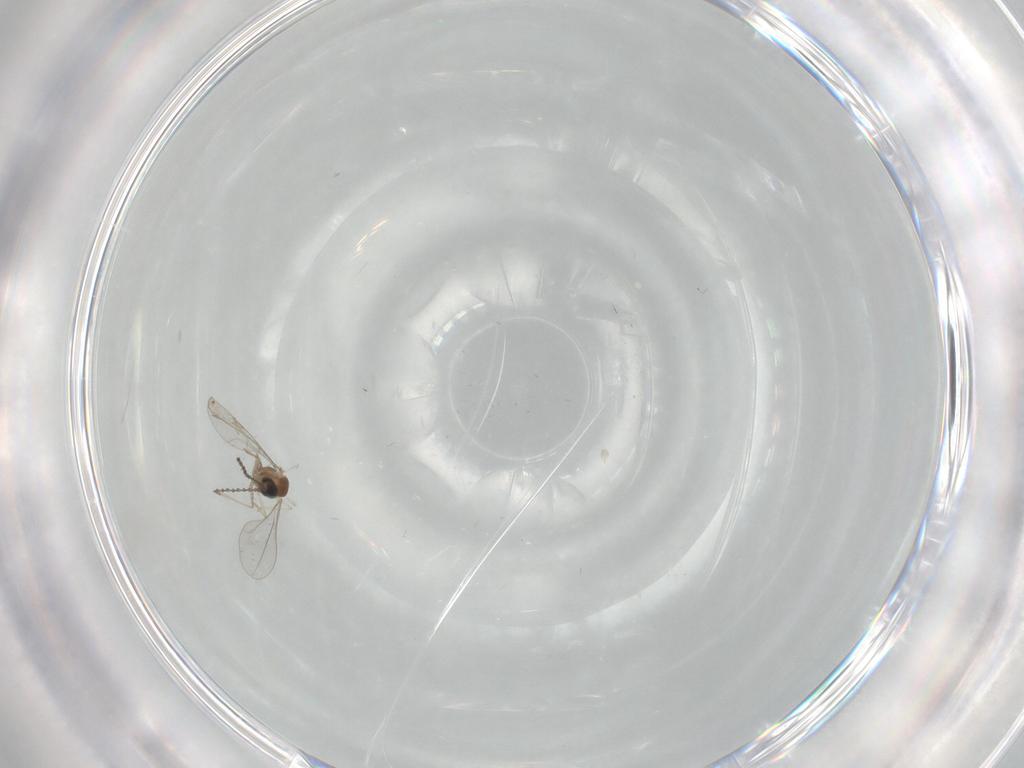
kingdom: Animalia
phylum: Arthropoda
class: Insecta
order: Diptera
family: Cecidomyiidae
